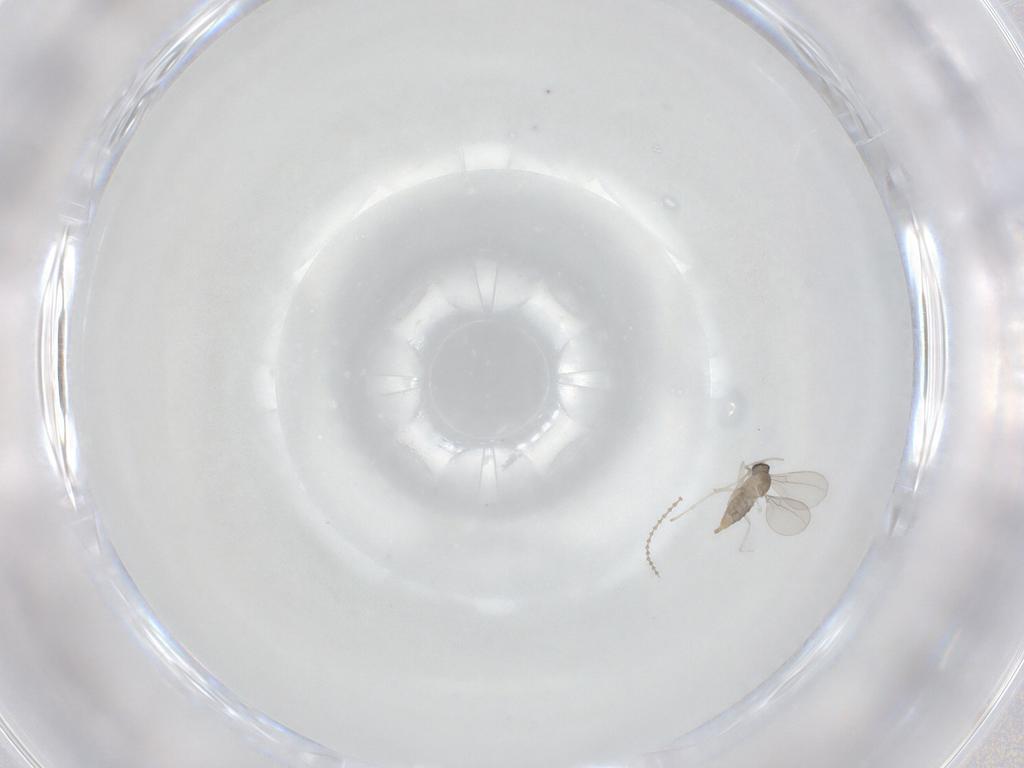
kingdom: Animalia
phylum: Arthropoda
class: Insecta
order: Diptera
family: Cecidomyiidae
